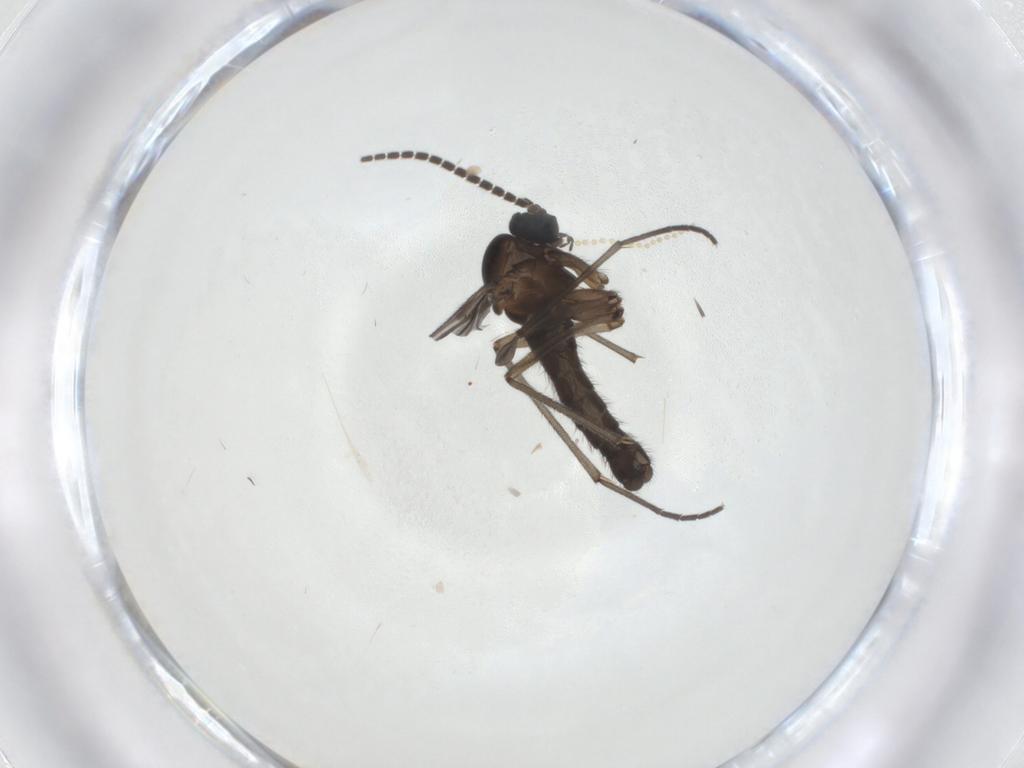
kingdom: Animalia
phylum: Arthropoda
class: Insecta
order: Diptera
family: Sciaridae
